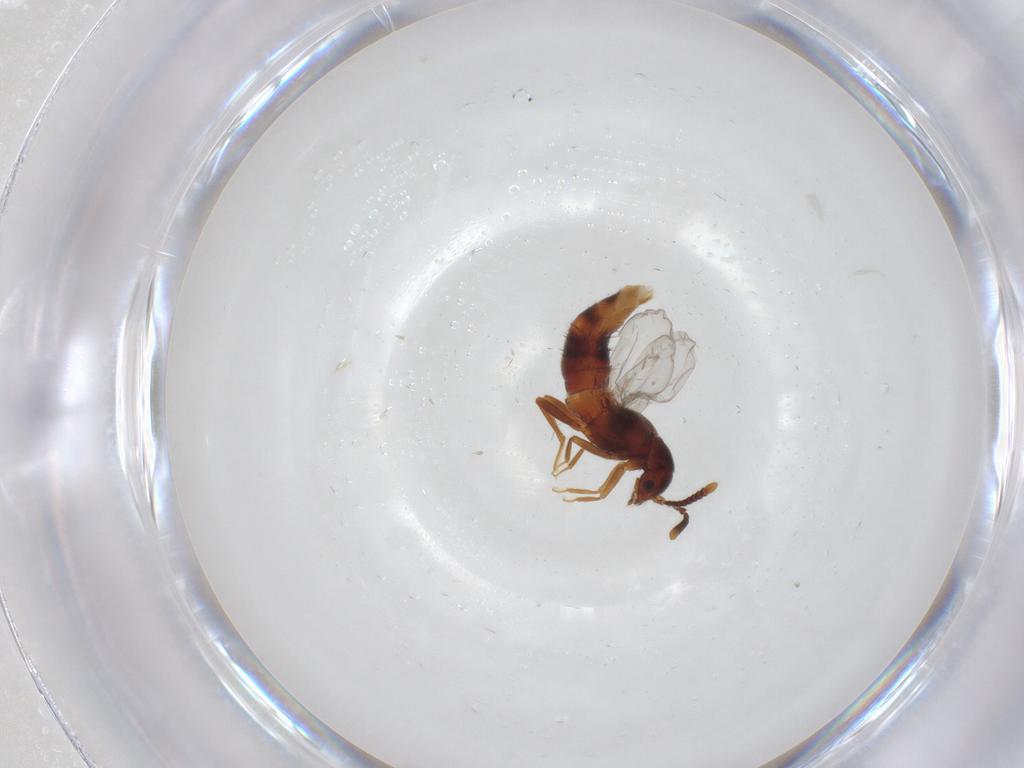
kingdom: Animalia
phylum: Arthropoda
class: Insecta
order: Coleoptera
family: Staphylinidae
